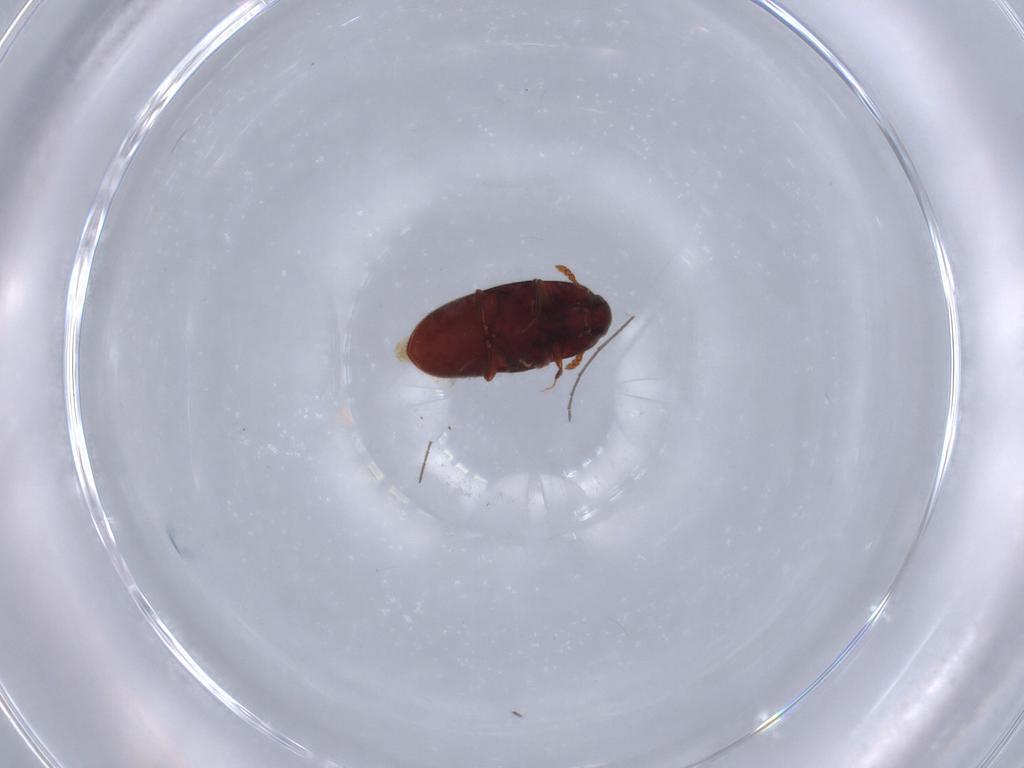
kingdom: Animalia
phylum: Arthropoda
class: Insecta
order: Coleoptera
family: Throscidae
